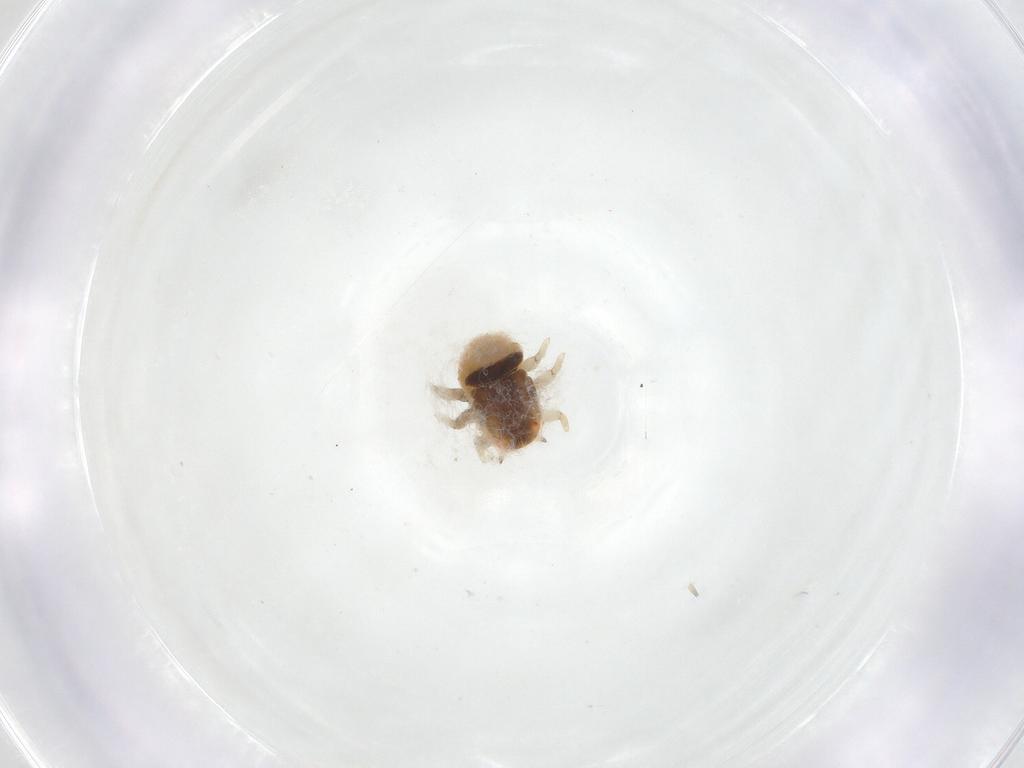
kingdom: Animalia
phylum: Arthropoda
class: Insecta
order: Hemiptera
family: Triozidae
